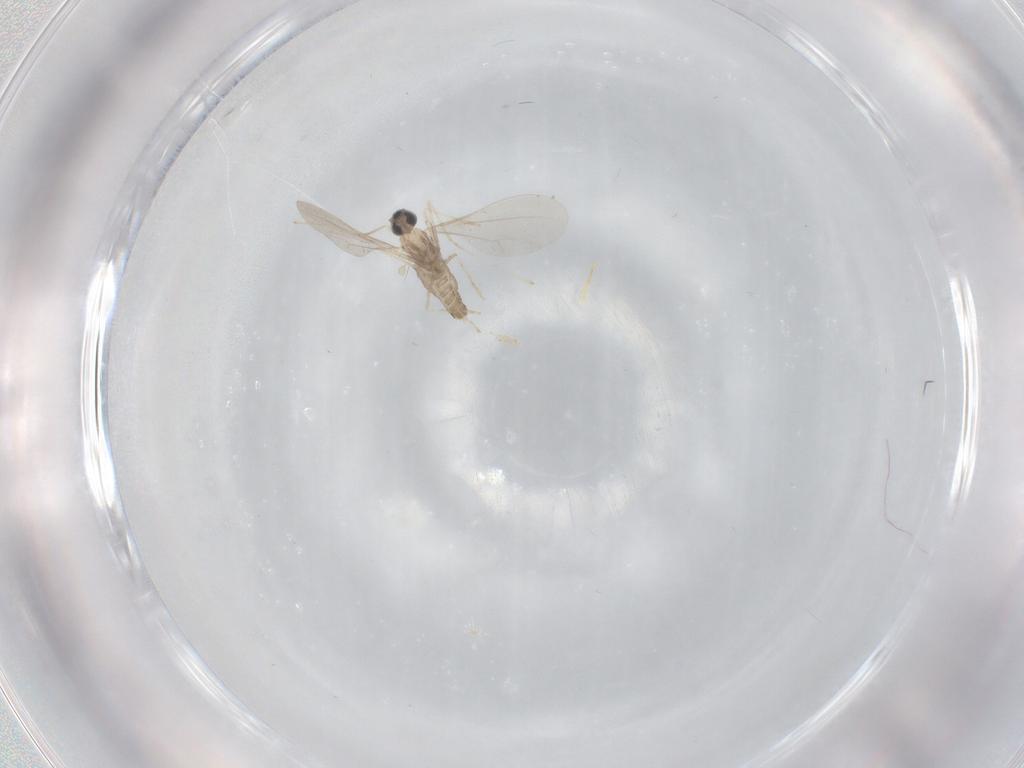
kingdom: Animalia
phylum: Arthropoda
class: Insecta
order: Diptera
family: Cecidomyiidae
